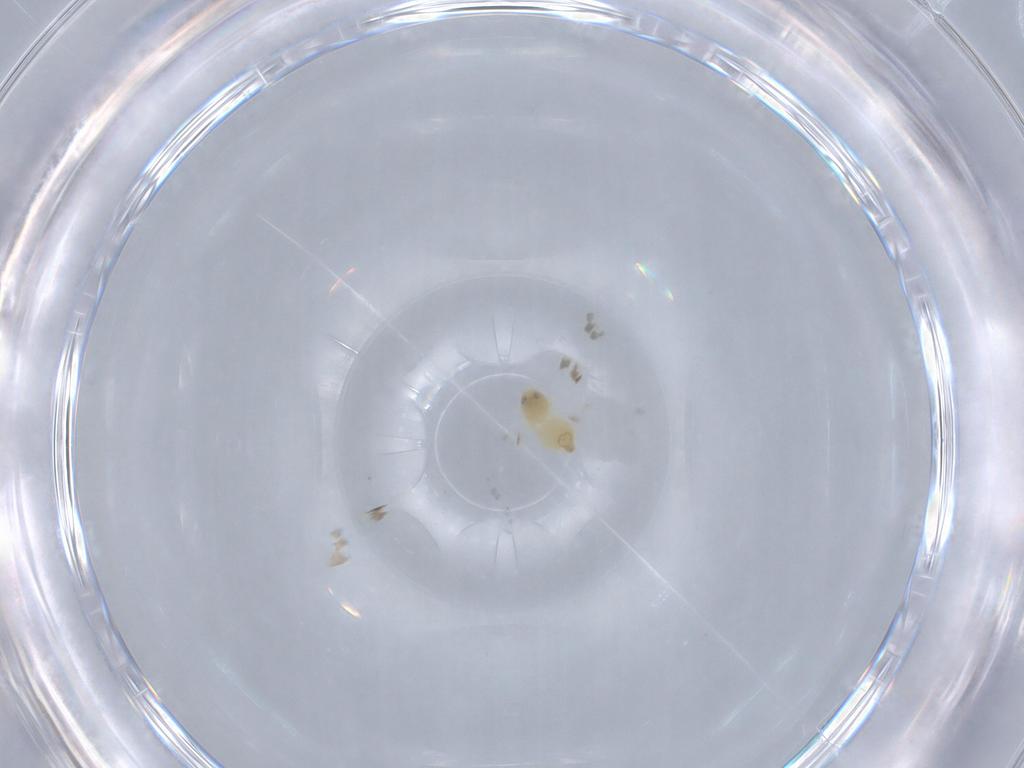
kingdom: Animalia
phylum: Arthropoda
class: Insecta
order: Hemiptera
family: Aleyrodidae
